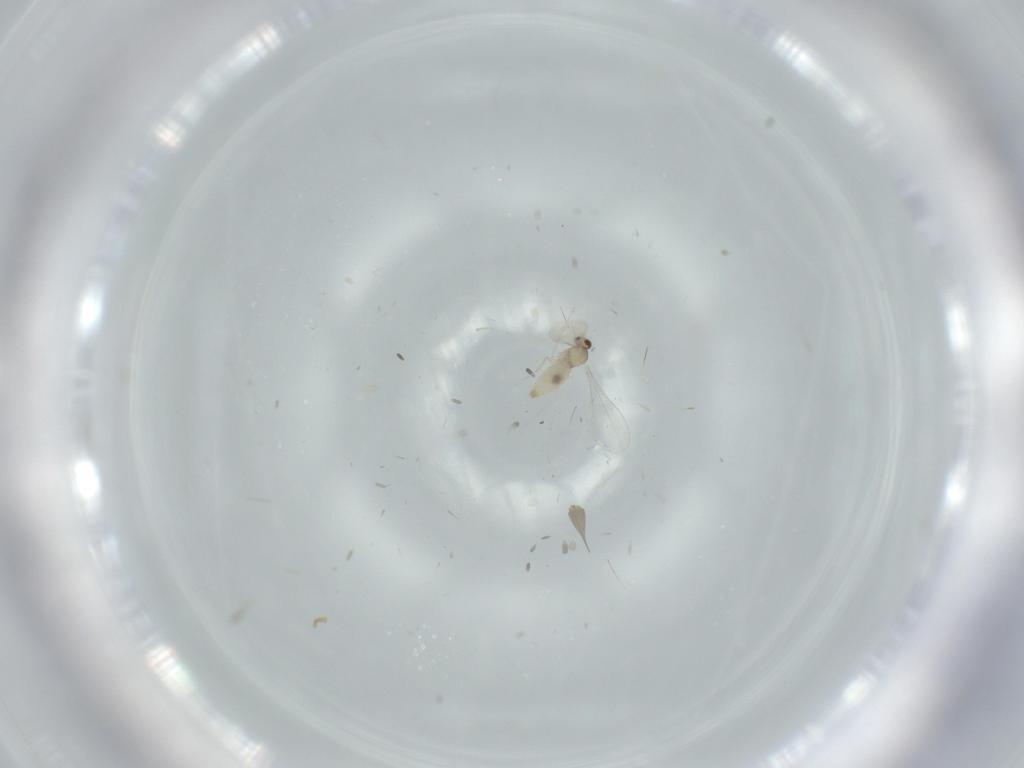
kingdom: Animalia
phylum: Arthropoda
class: Insecta
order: Diptera
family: Cecidomyiidae
